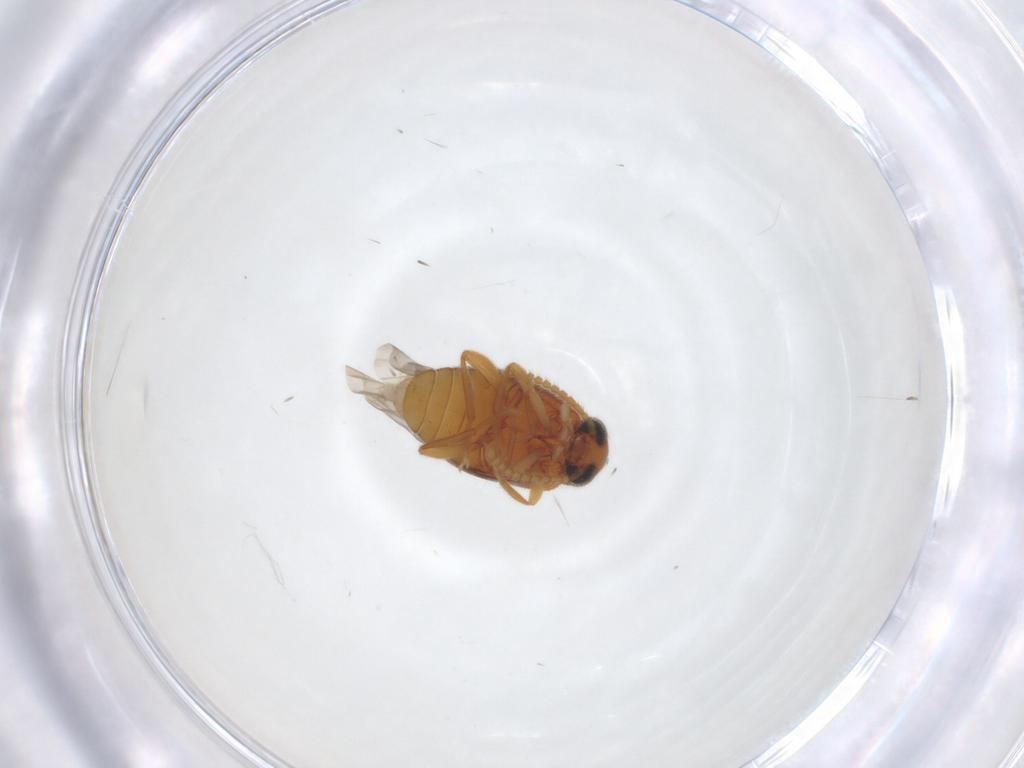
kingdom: Animalia
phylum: Arthropoda
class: Insecta
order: Coleoptera
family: Aderidae
